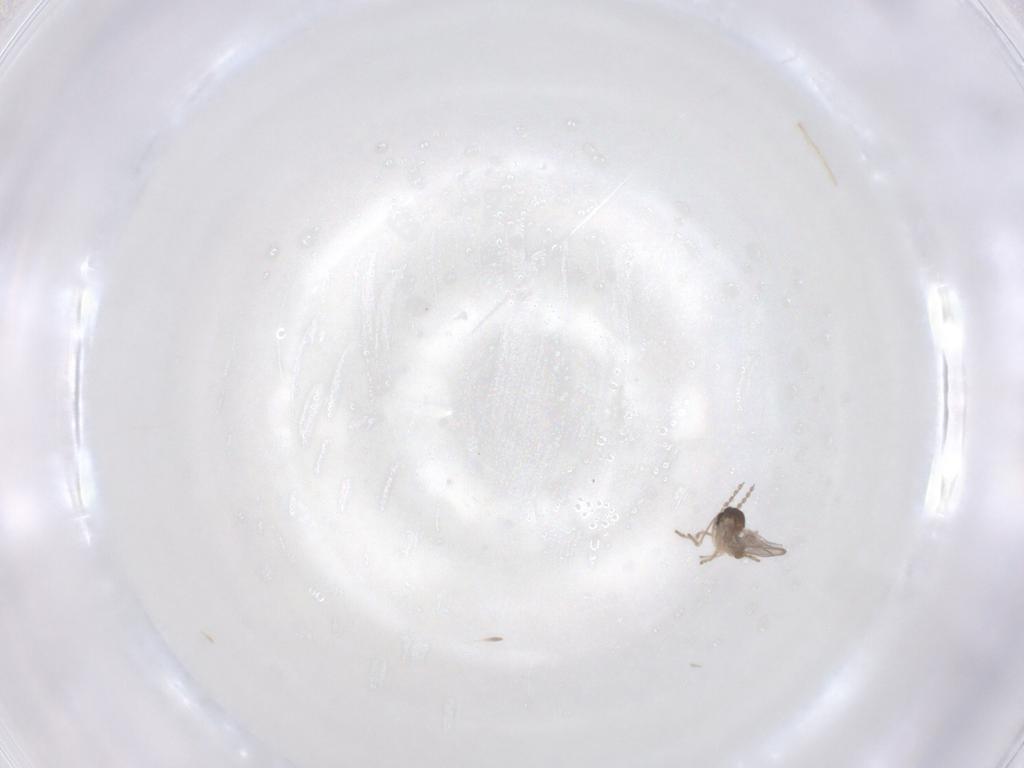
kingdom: Animalia
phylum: Arthropoda
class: Insecta
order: Diptera
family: Cecidomyiidae
